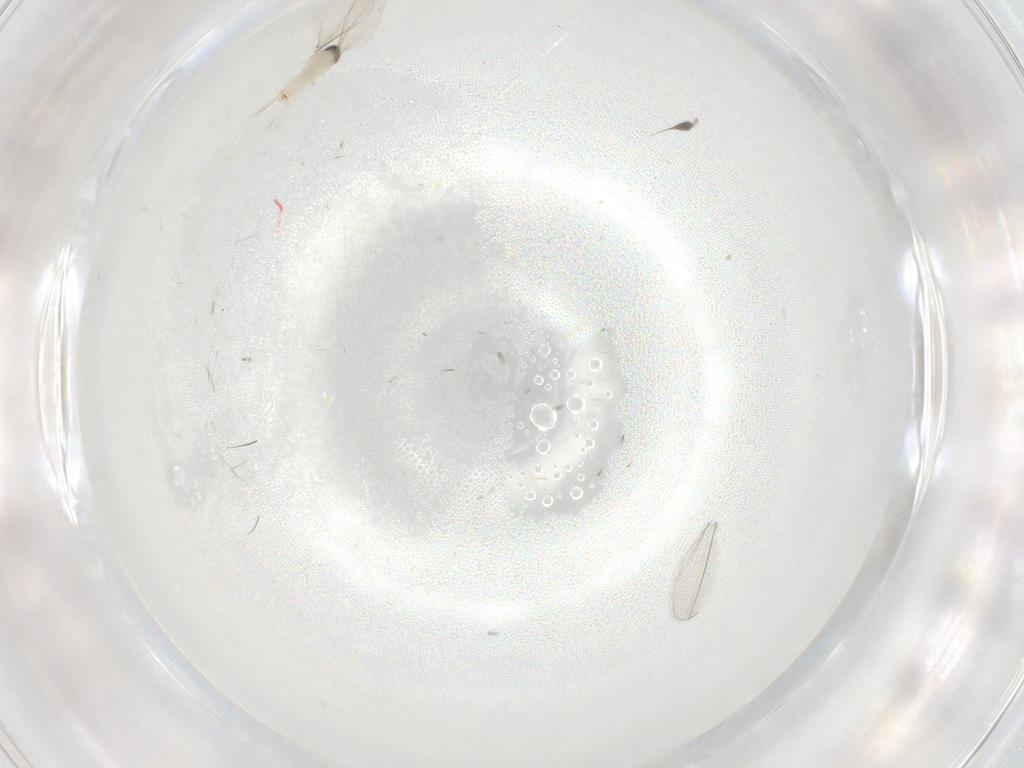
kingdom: Animalia
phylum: Arthropoda
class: Insecta
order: Diptera
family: Cecidomyiidae
